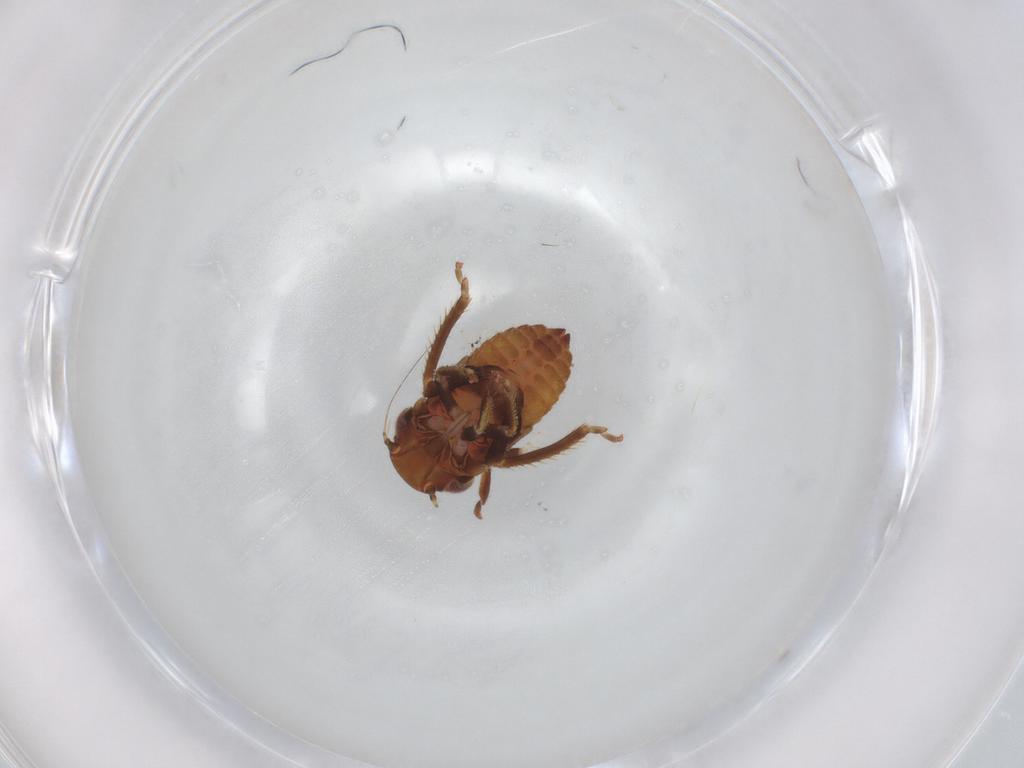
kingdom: Animalia
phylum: Arthropoda
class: Insecta
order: Hemiptera
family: Cicadellidae
